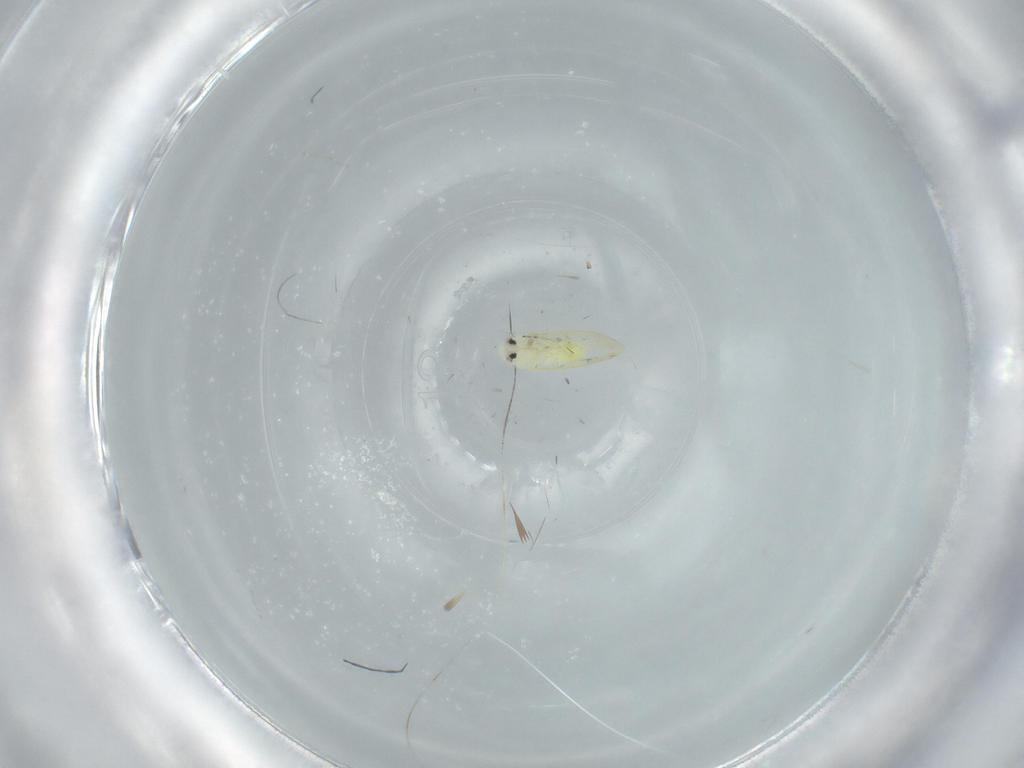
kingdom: Animalia
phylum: Arthropoda
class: Insecta
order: Hemiptera
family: Aleyrodidae
